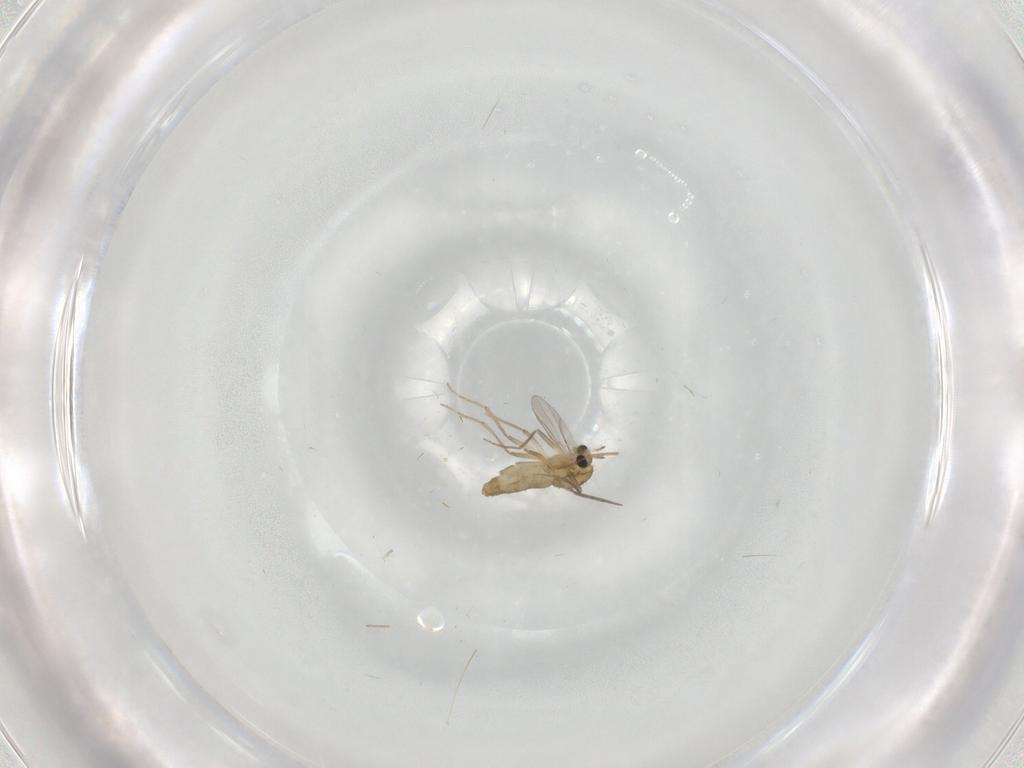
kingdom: Animalia
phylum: Arthropoda
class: Insecta
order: Diptera
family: Chironomidae
